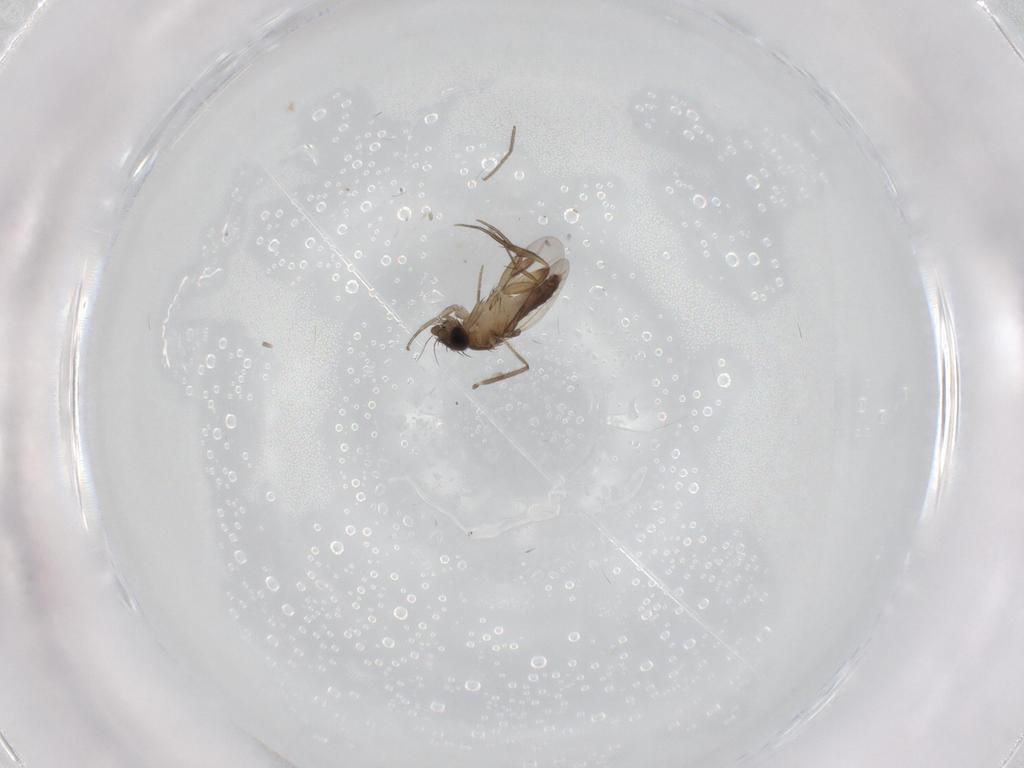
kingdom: Animalia
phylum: Arthropoda
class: Insecta
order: Diptera
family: Phoridae
